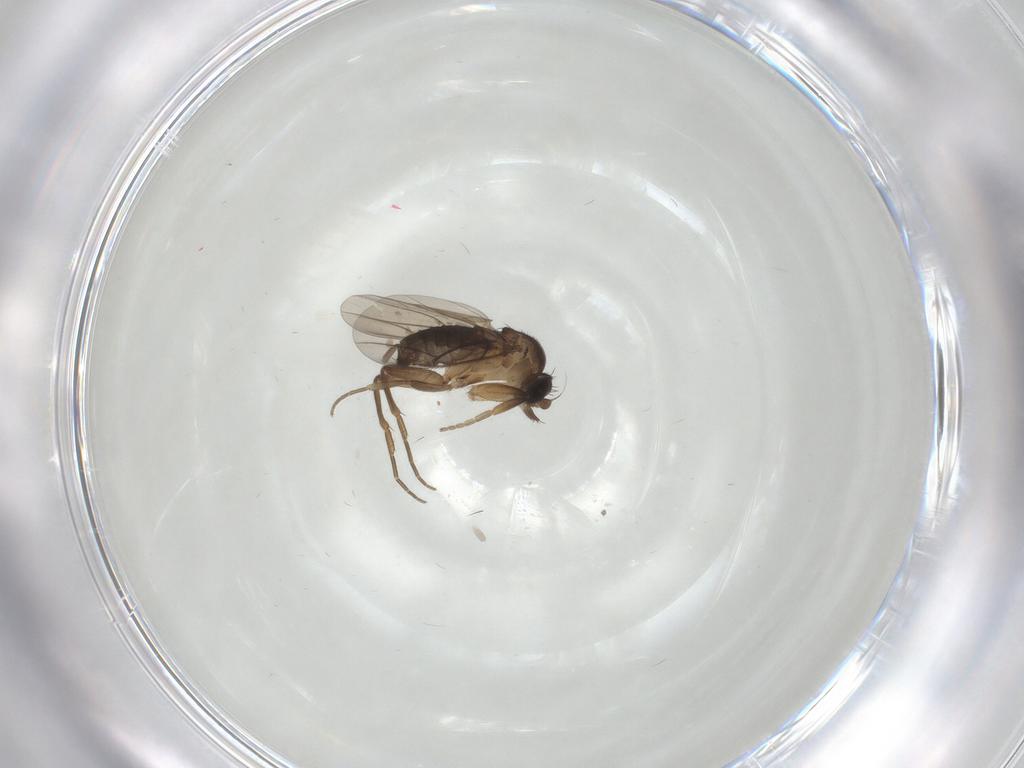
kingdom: Animalia
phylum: Arthropoda
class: Insecta
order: Diptera
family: Phoridae
